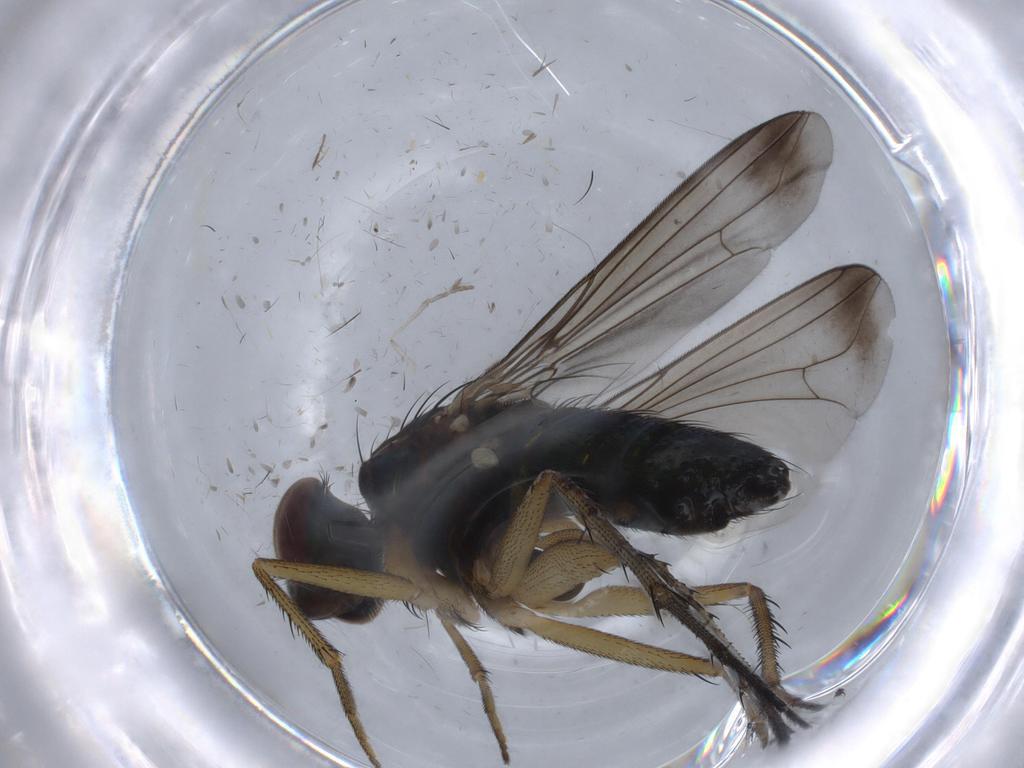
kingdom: Animalia
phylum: Arthropoda
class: Insecta
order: Diptera
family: Dolichopodidae
